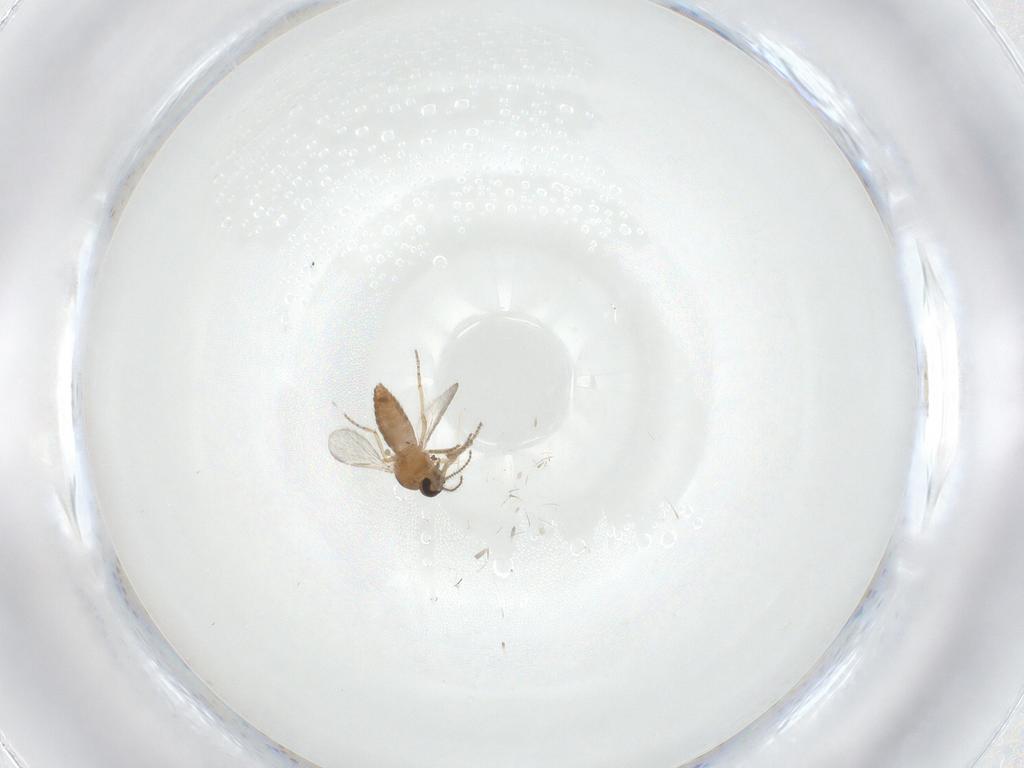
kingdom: Animalia
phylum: Arthropoda
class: Insecta
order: Diptera
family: Ceratopogonidae
